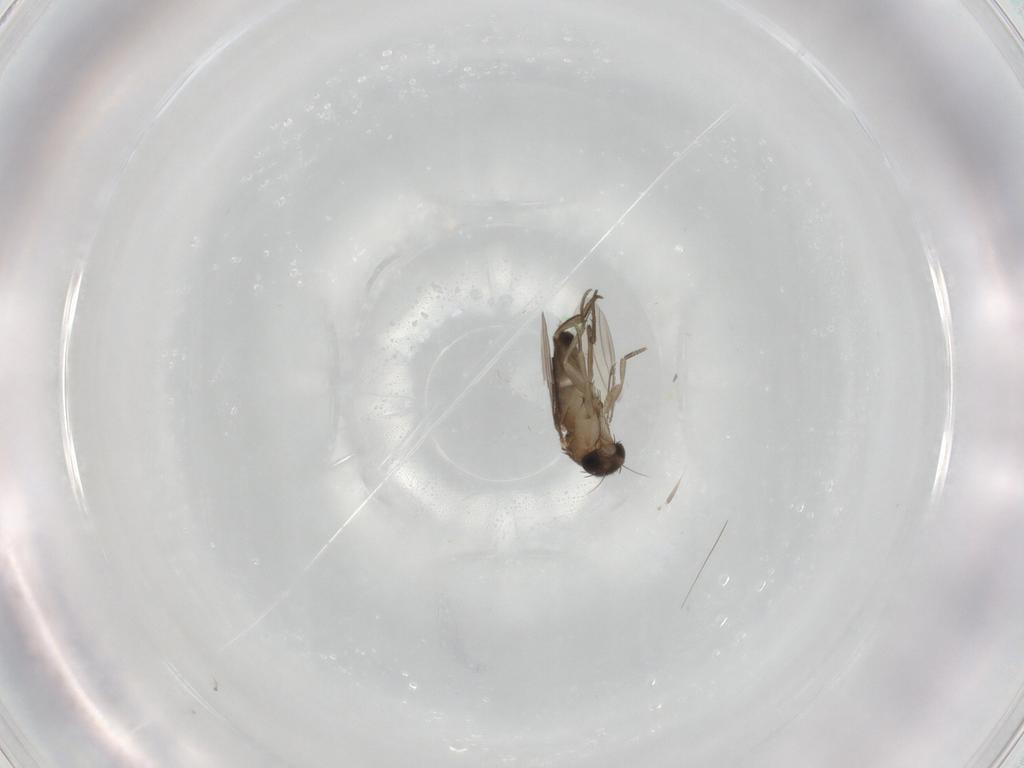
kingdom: Animalia
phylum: Arthropoda
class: Insecta
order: Diptera
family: Phoridae
